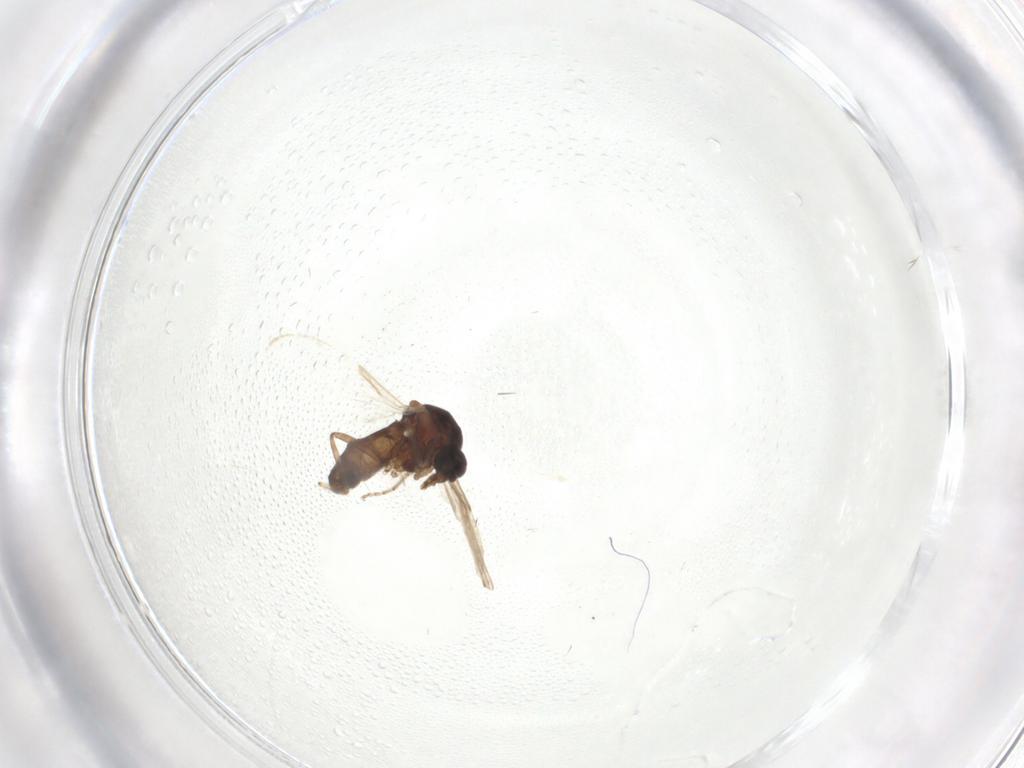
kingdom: Animalia
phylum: Arthropoda
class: Insecta
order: Diptera
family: Ceratopogonidae
